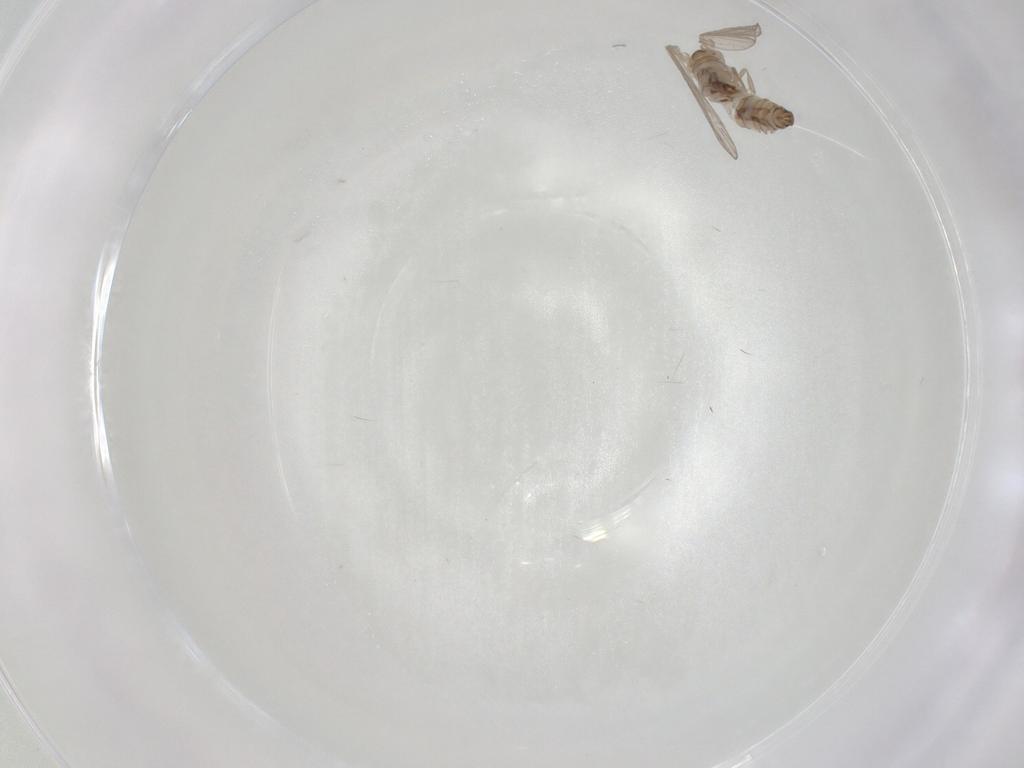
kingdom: Animalia
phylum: Arthropoda
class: Insecta
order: Diptera
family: Psychodidae
